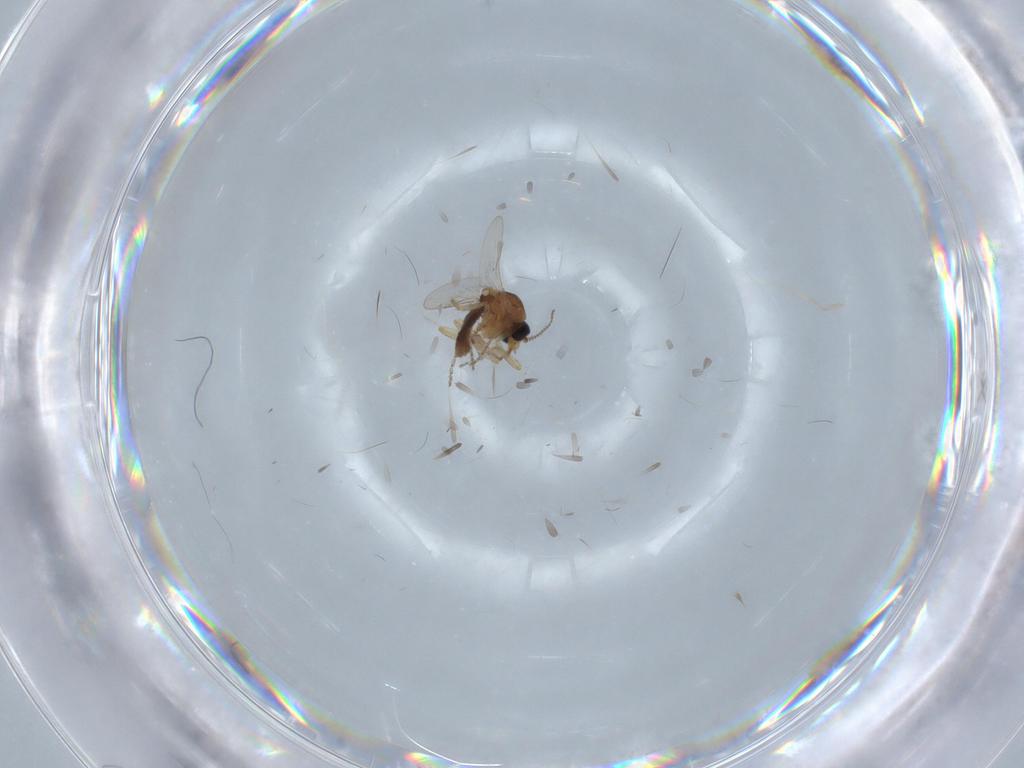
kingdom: Animalia
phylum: Arthropoda
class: Insecta
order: Diptera
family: Ceratopogonidae
